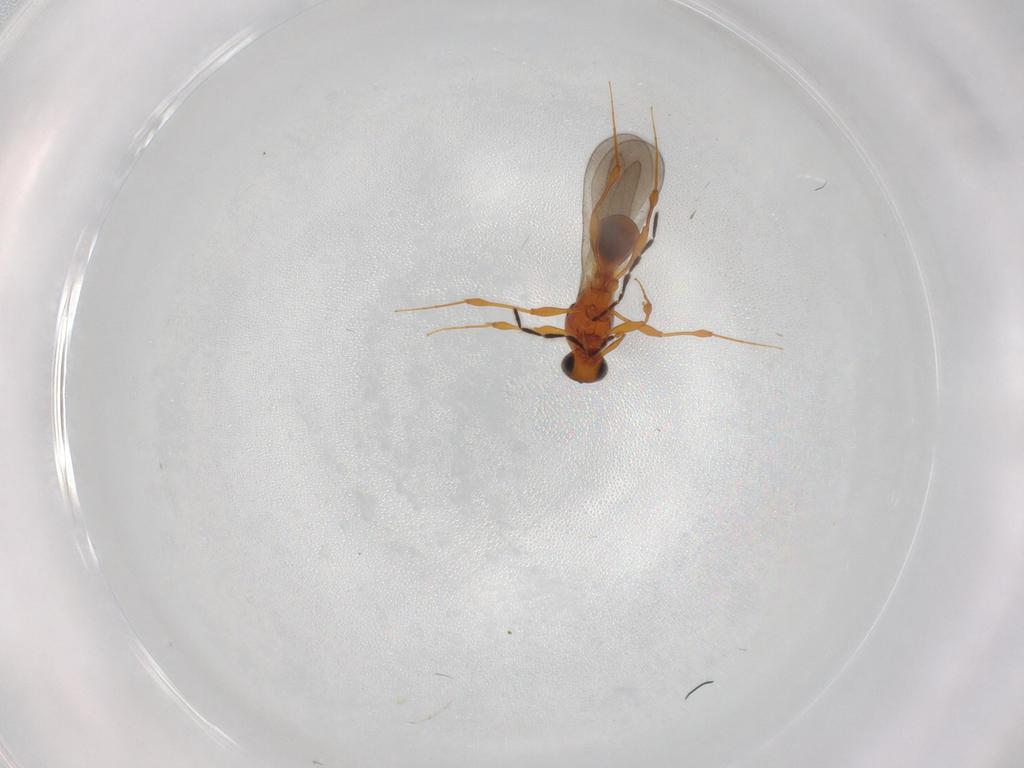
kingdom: Animalia
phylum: Arthropoda
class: Insecta
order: Hymenoptera
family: Platygastridae
